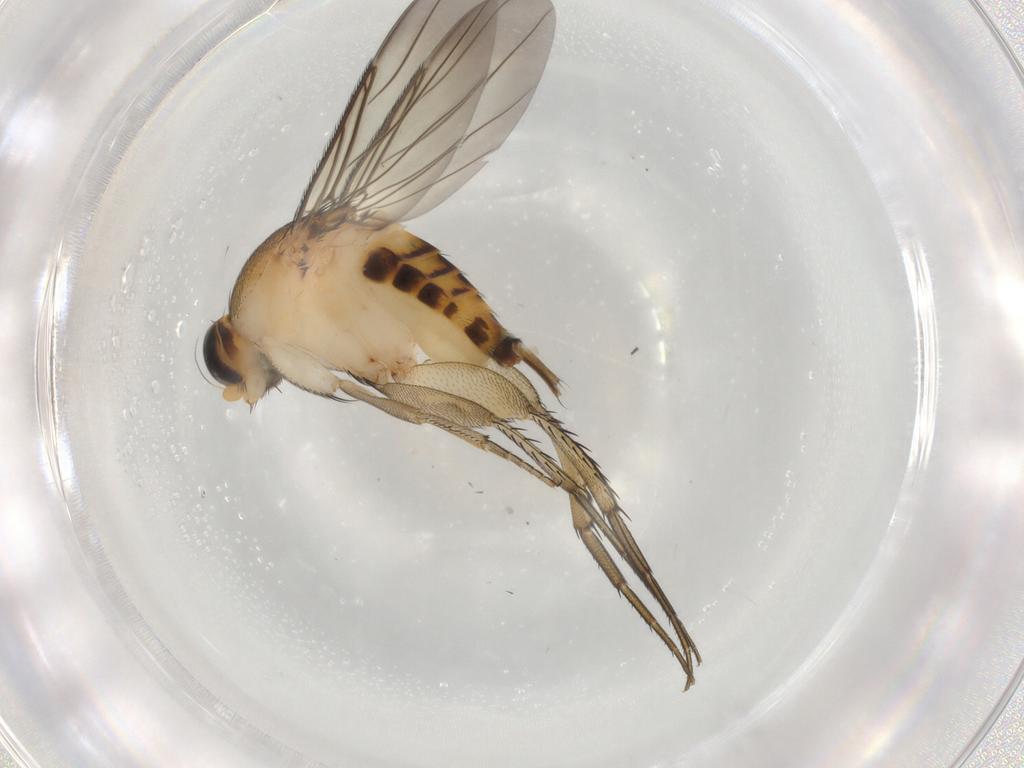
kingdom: Animalia
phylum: Arthropoda
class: Insecta
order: Diptera
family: Phoridae
